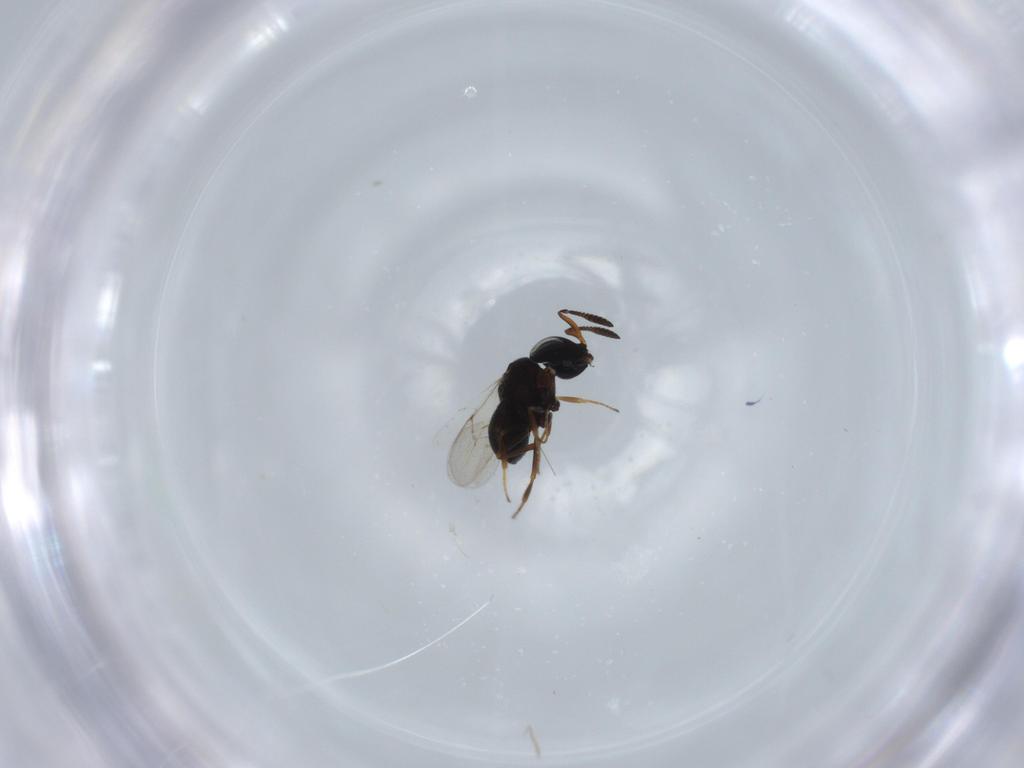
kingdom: Animalia
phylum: Arthropoda
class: Insecta
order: Hymenoptera
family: Scelionidae
